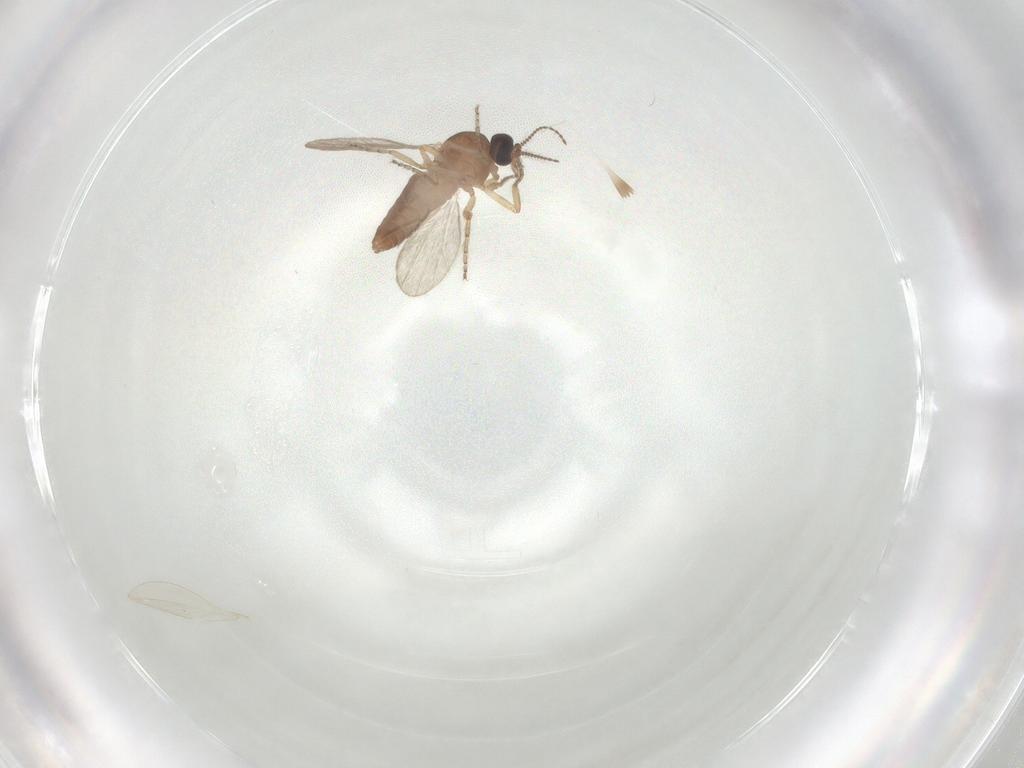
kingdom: Animalia
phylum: Arthropoda
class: Insecta
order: Diptera
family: Ceratopogonidae
